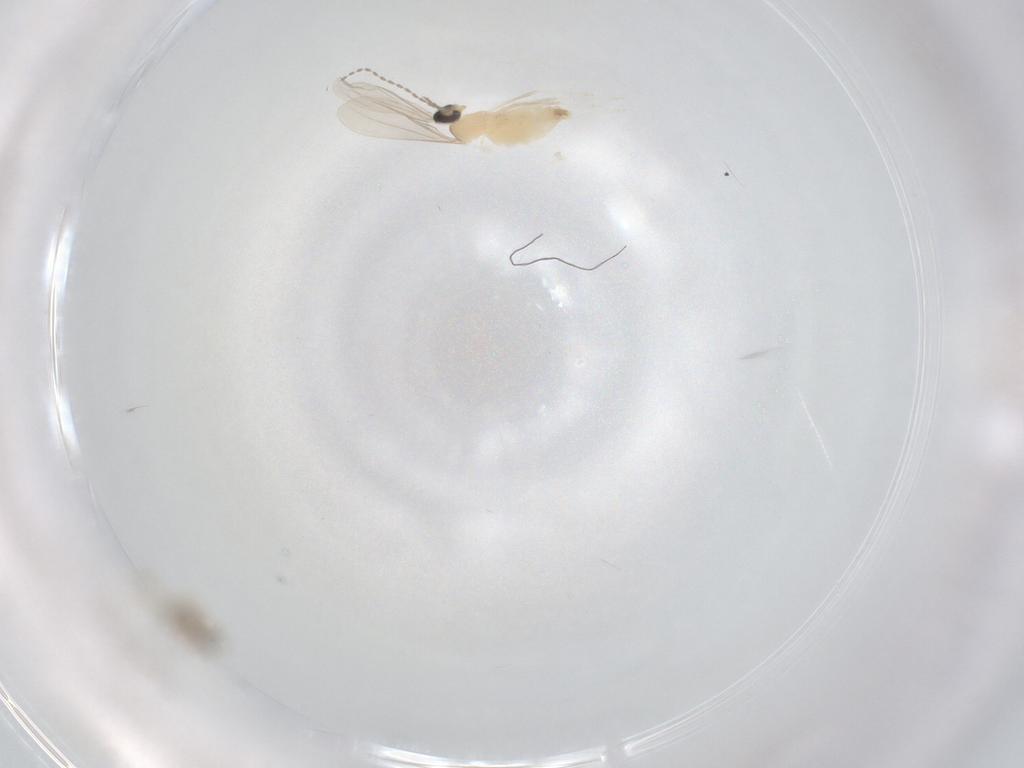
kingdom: Animalia
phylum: Arthropoda
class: Insecta
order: Diptera
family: Cecidomyiidae
